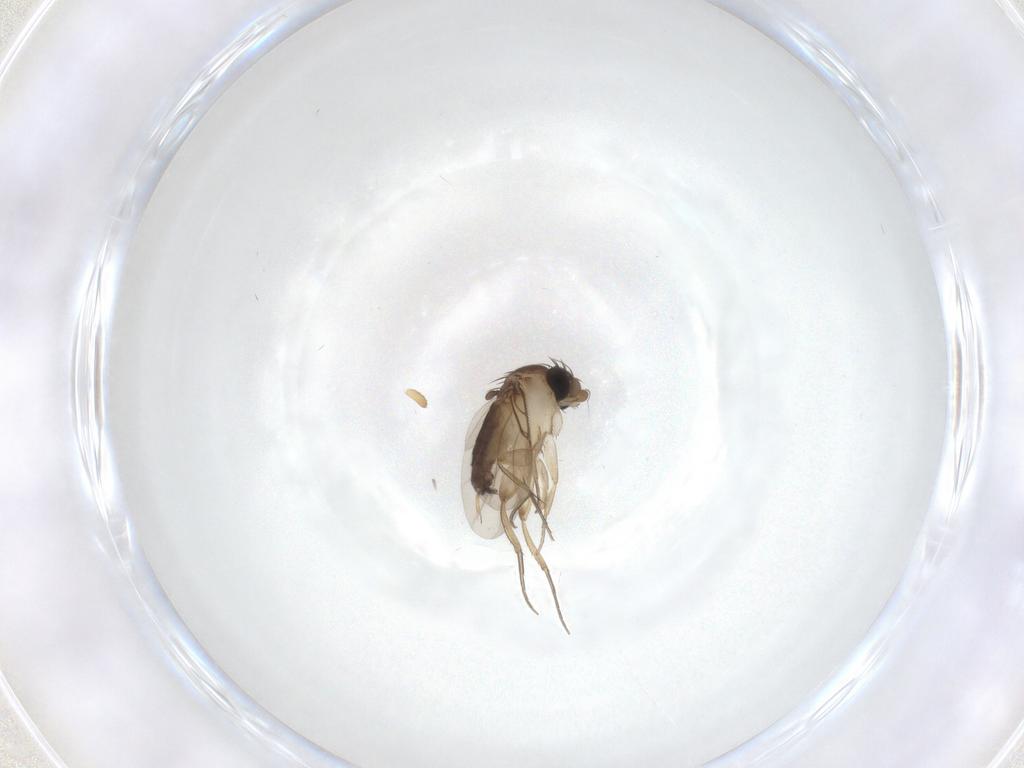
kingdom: Animalia
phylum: Arthropoda
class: Insecta
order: Diptera
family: Phoridae
